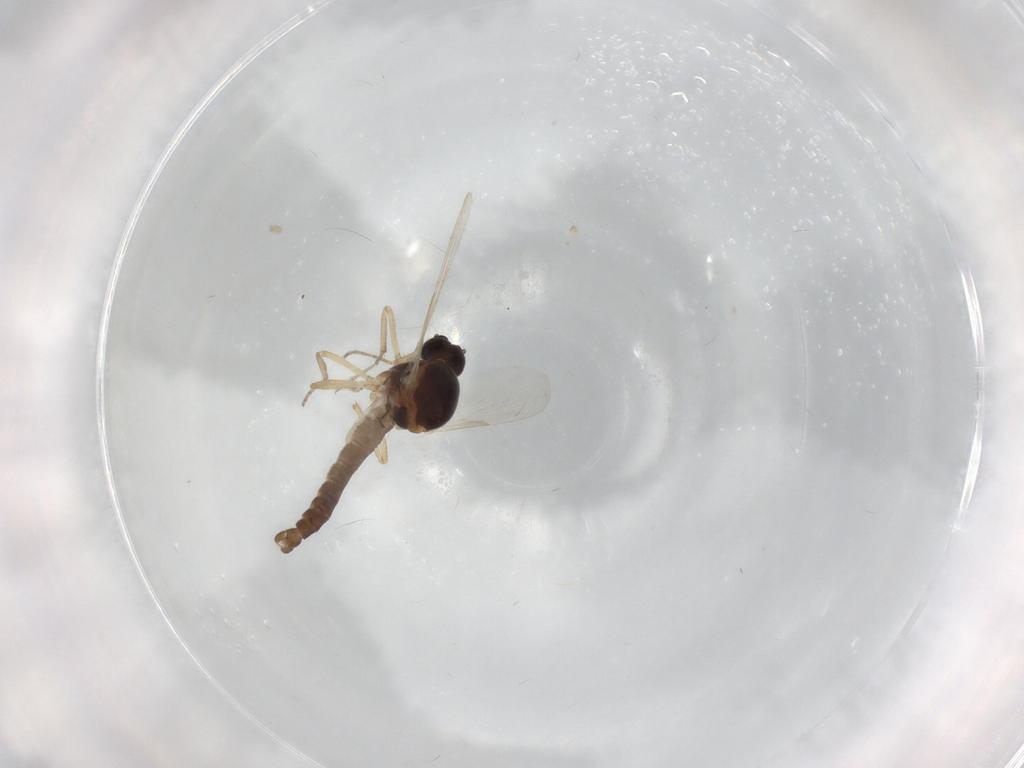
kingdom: Animalia
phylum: Arthropoda
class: Insecta
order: Diptera
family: Ceratopogonidae
